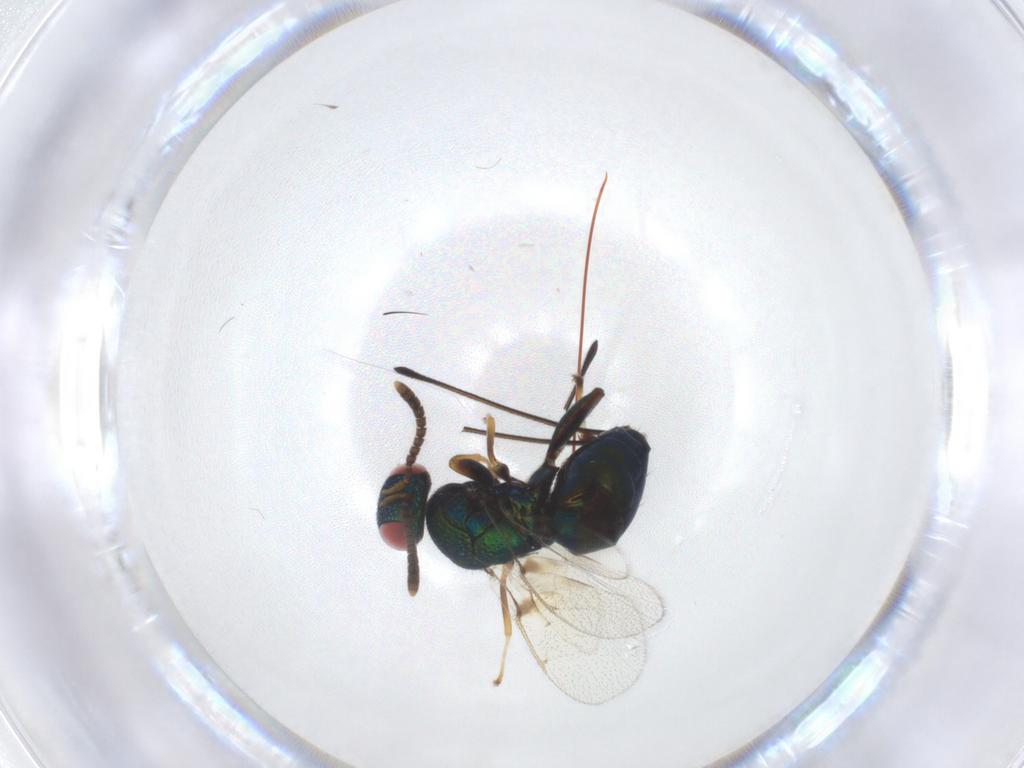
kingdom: Animalia
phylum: Arthropoda
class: Insecta
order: Hymenoptera
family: Torymidae
